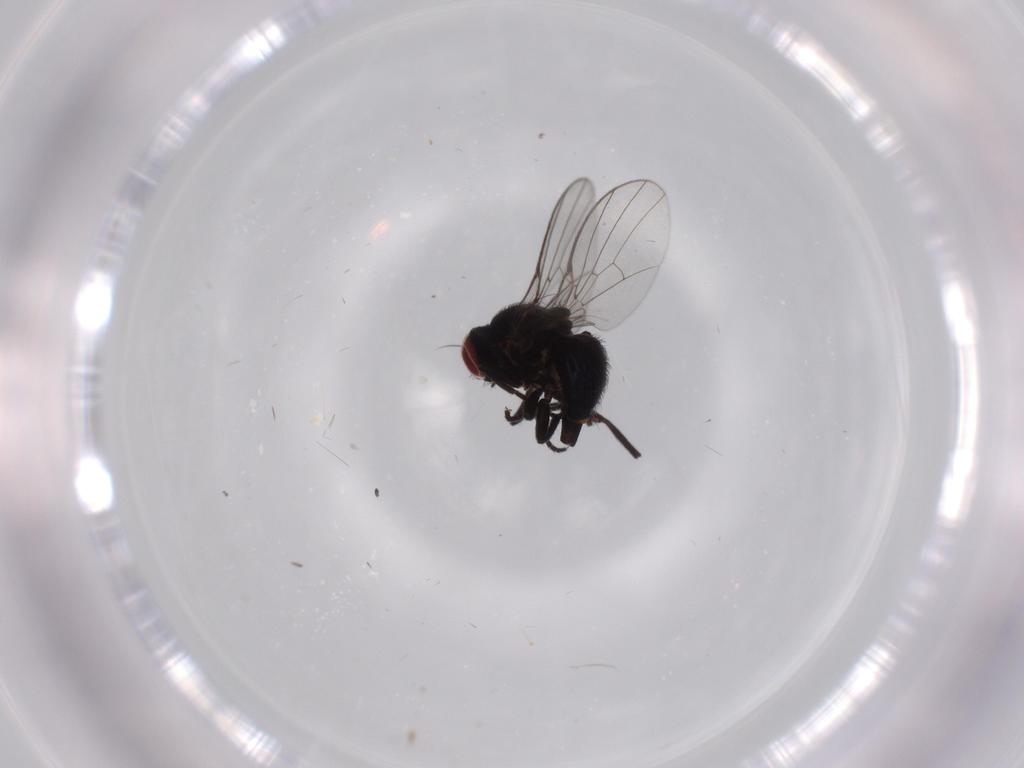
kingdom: Animalia
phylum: Arthropoda
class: Insecta
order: Diptera
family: Agromyzidae
